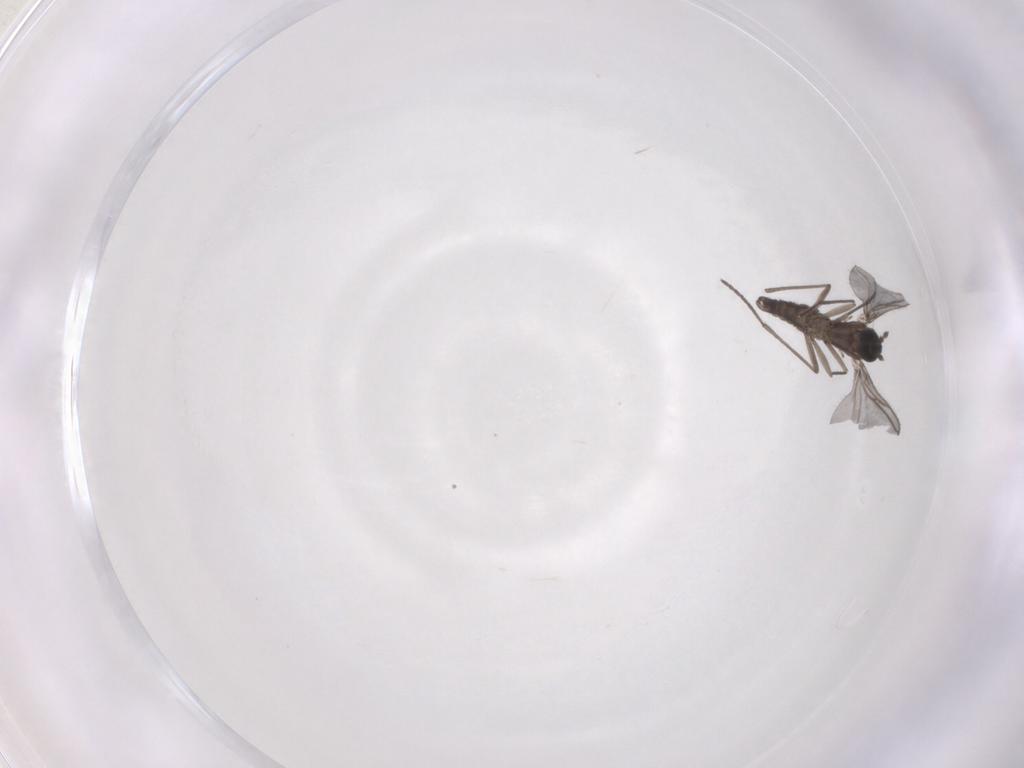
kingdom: Animalia
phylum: Arthropoda
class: Insecta
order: Diptera
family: Sciaridae
